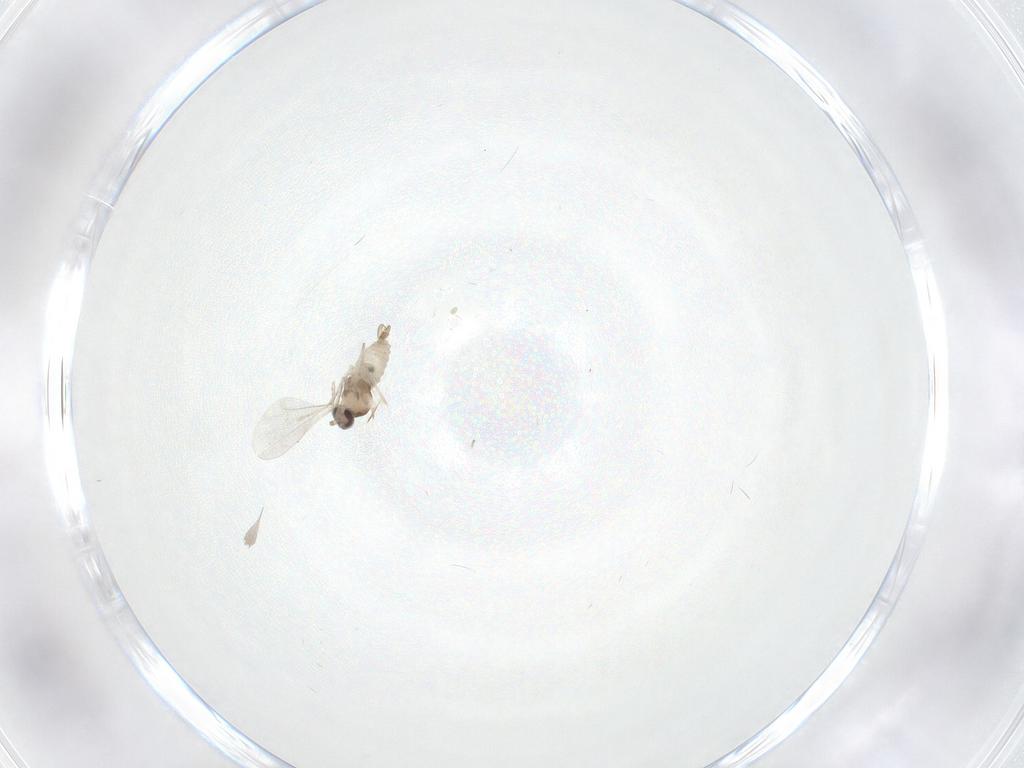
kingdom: Animalia
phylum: Arthropoda
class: Insecta
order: Diptera
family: Cecidomyiidae
